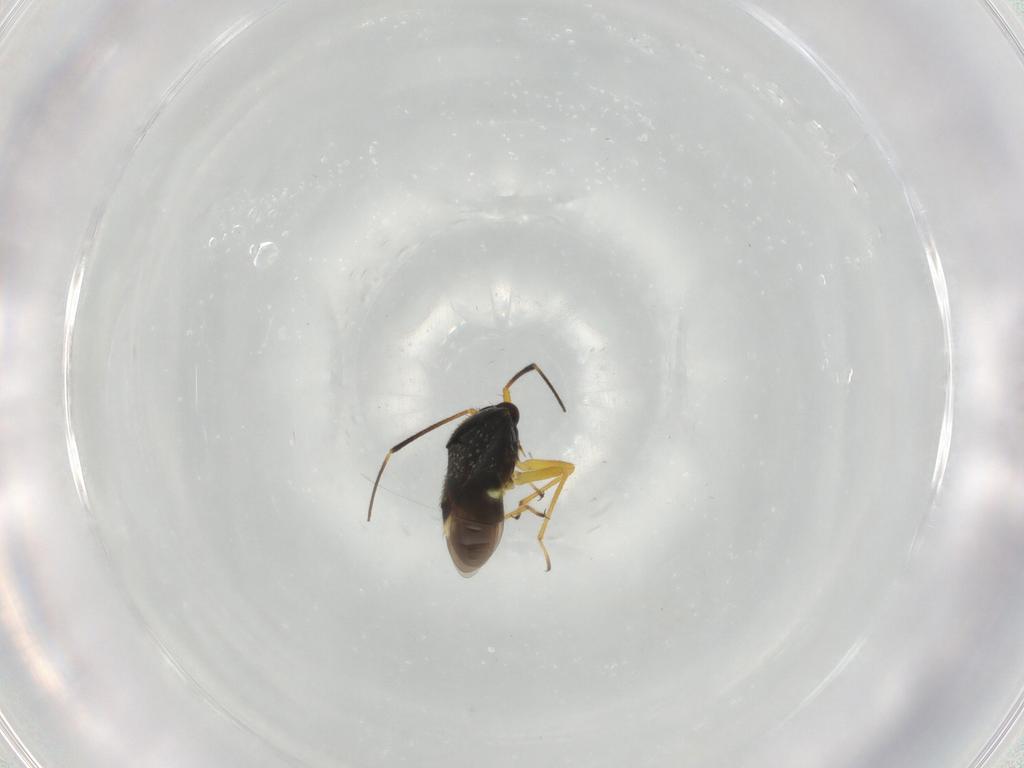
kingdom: Animalia
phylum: Arthropoda
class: Insecta
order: Hemiptera
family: Miridae
